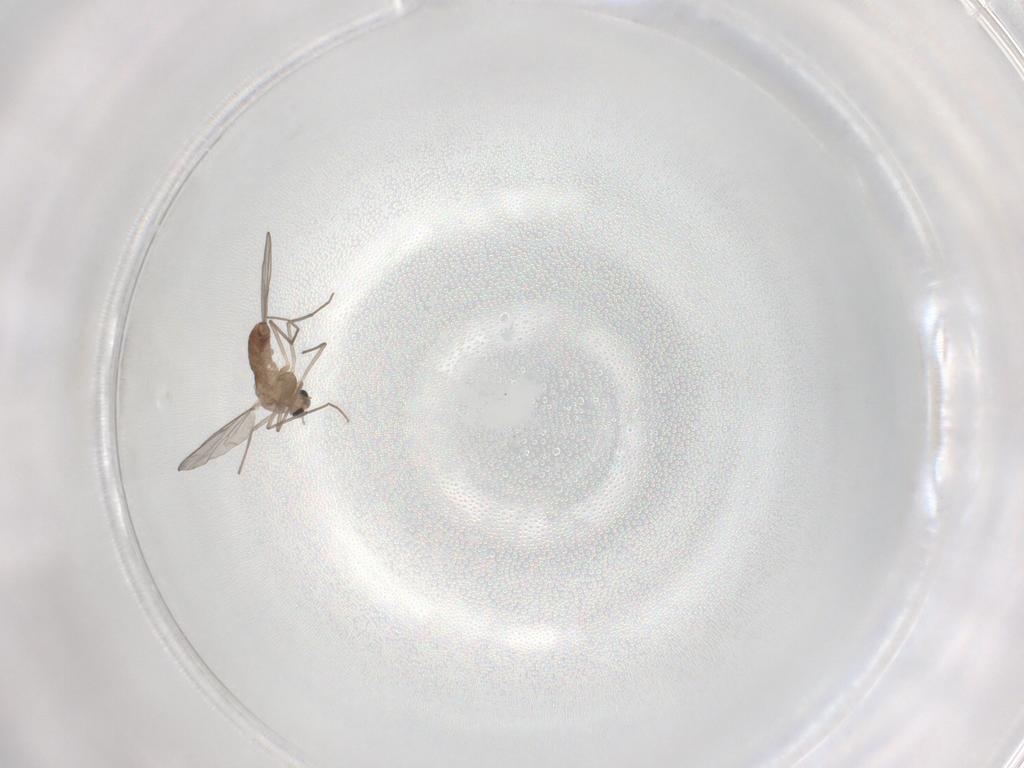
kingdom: Animalia
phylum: Arthropoda
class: Insecta
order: Diptera
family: Chironomidae
